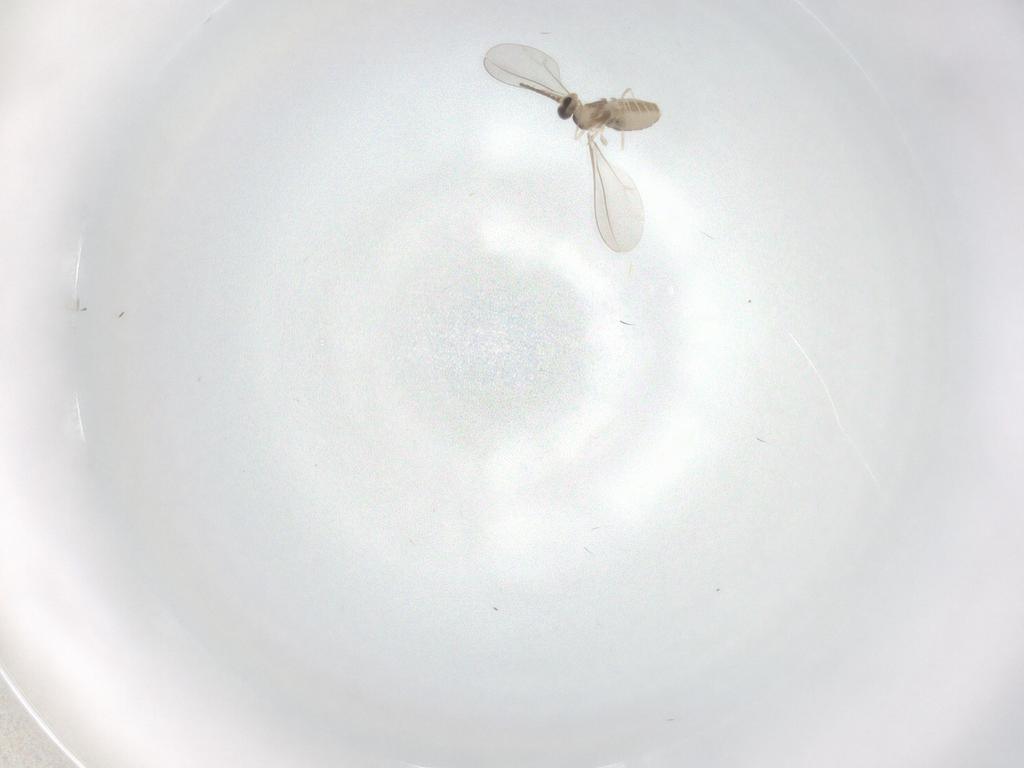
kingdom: Animalia
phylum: Arthropoda
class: Insecta
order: Diptera
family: Cecidomyiidae
